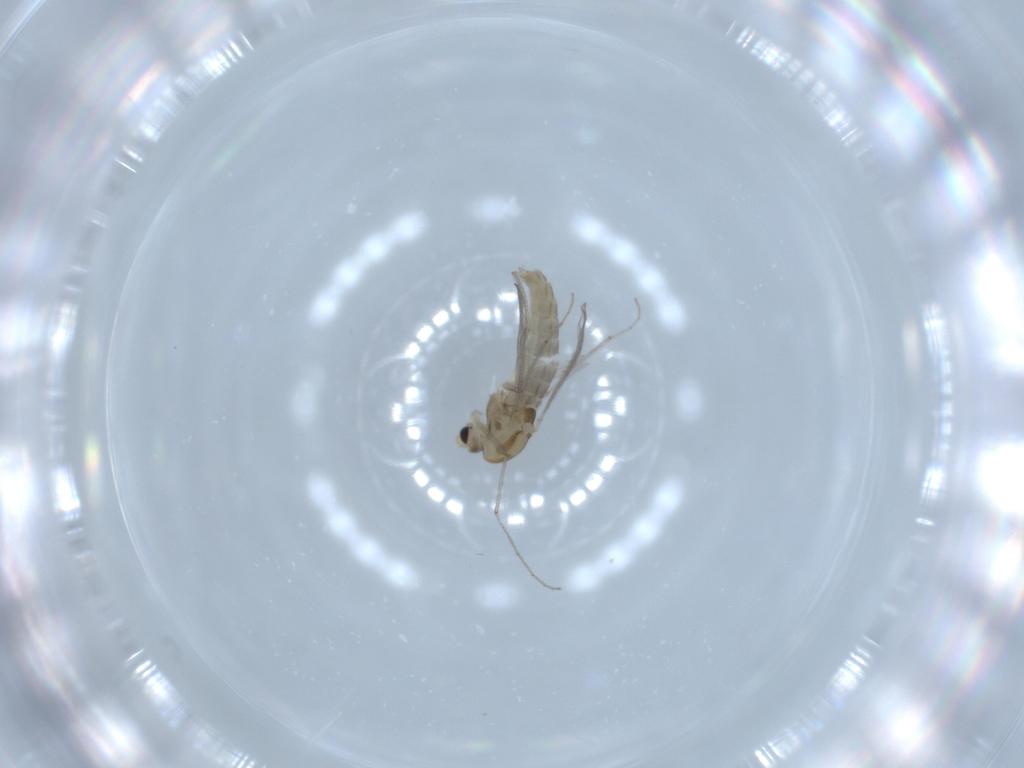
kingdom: Animalia
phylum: Arthropoda
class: Insecta
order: Diptera
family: Chironomidae
